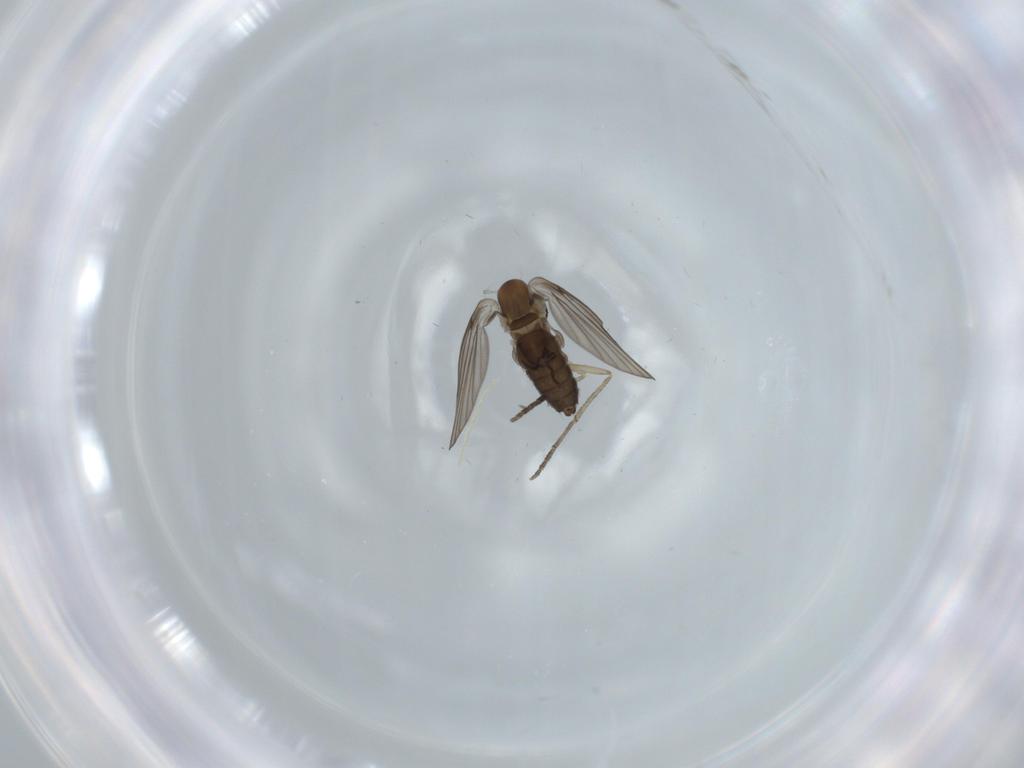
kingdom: Animalia
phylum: Arthropoda
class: Insecta
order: Diptera
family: Psychodidae
